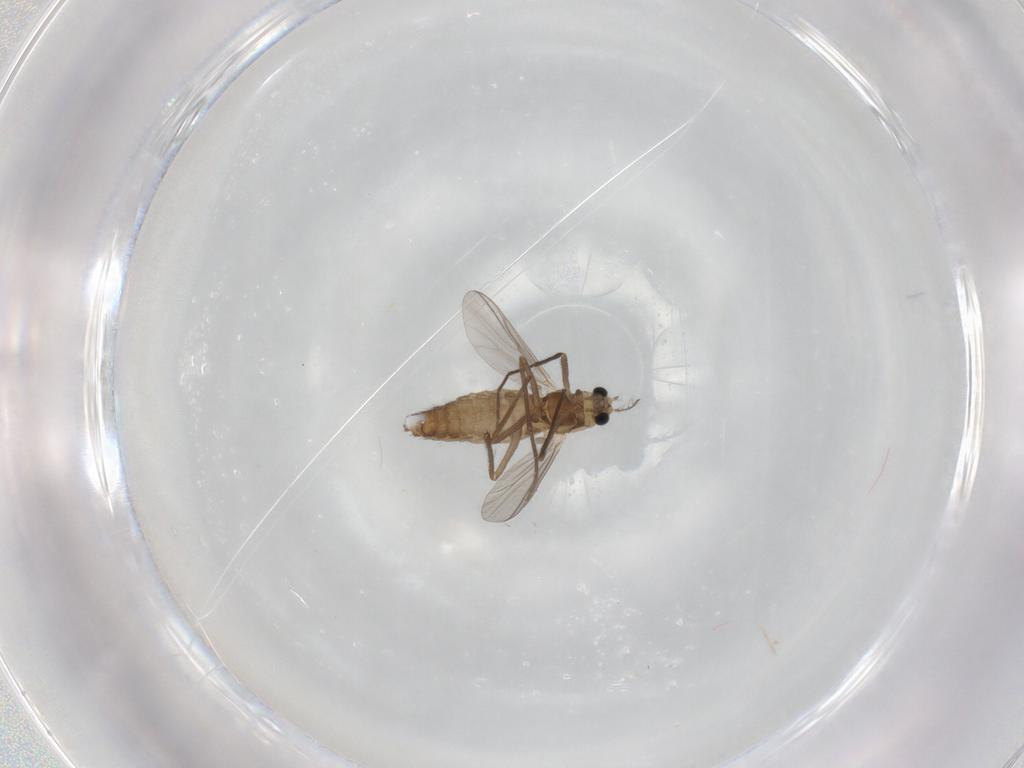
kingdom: Animalia
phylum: Arthropoda
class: Insecta
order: Diptera
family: Chironomidae
